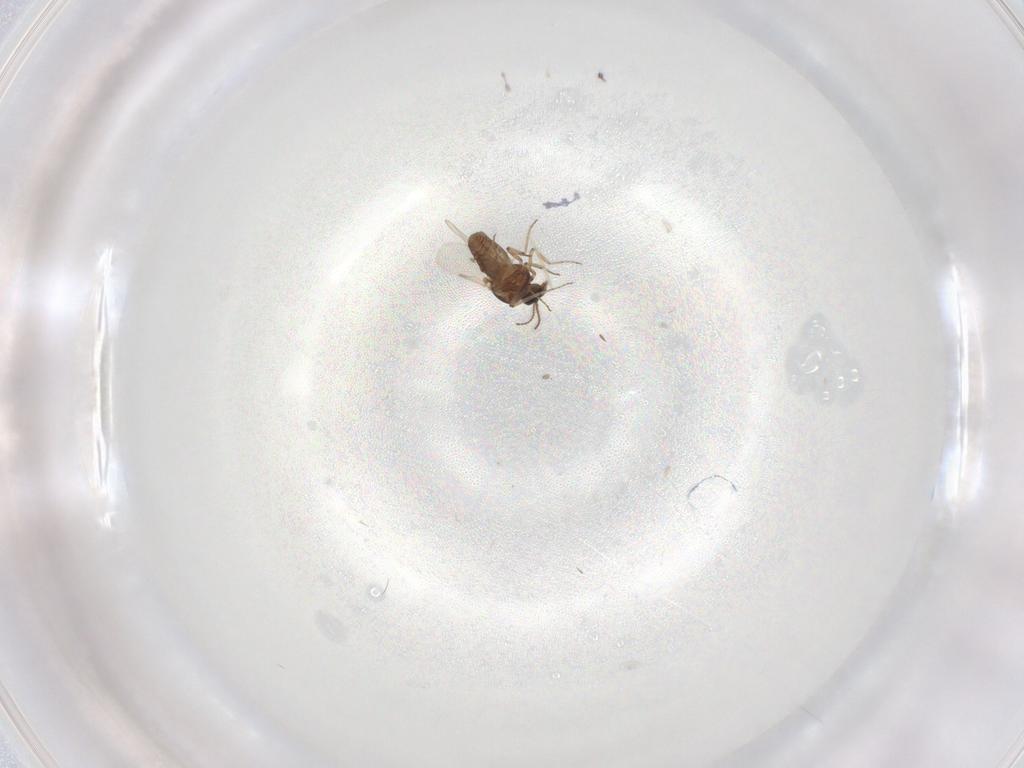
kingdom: Animalia
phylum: Arthropoda
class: Insecta
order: Diptera
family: Ceratopogonidae
